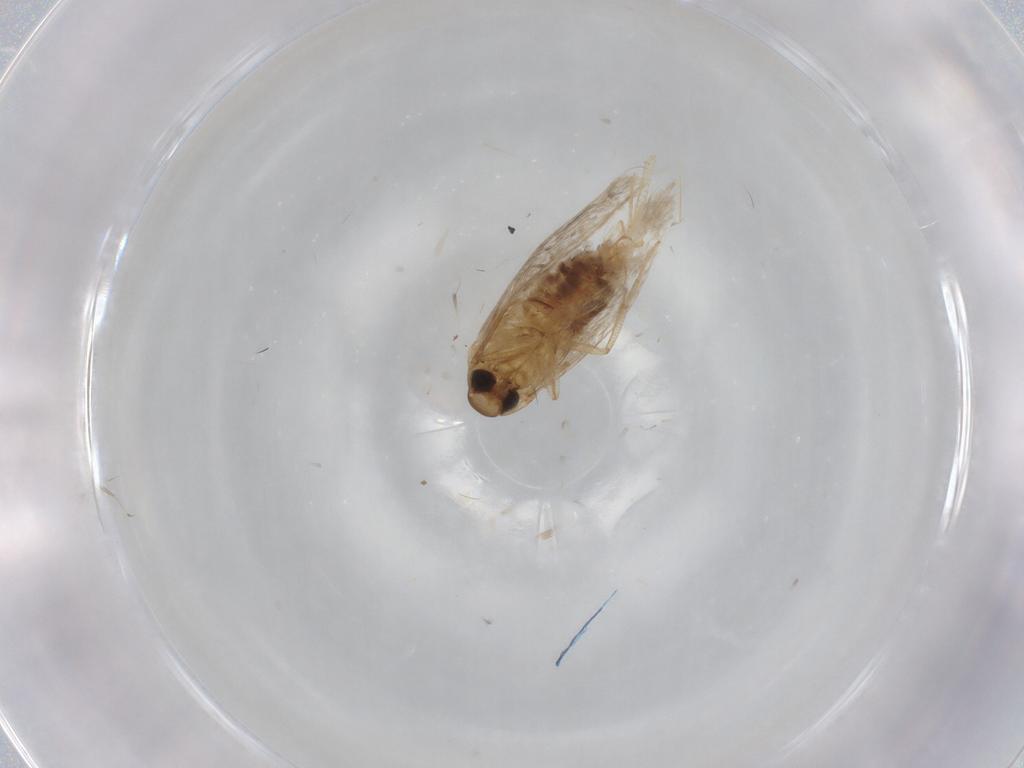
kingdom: Animalia
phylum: Arthropoda
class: Insecta
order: Lepidoptera
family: Cosmopterigidae
